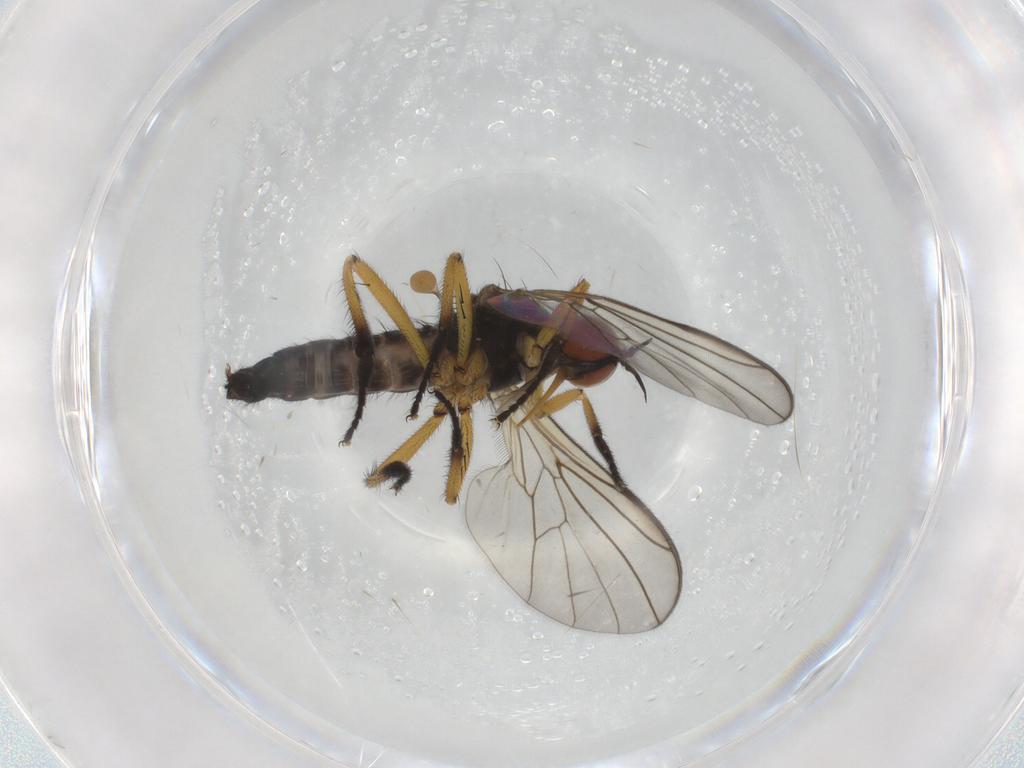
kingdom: Animalia
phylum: Arthropoda
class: Insecta
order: Diptera
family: Empididae
